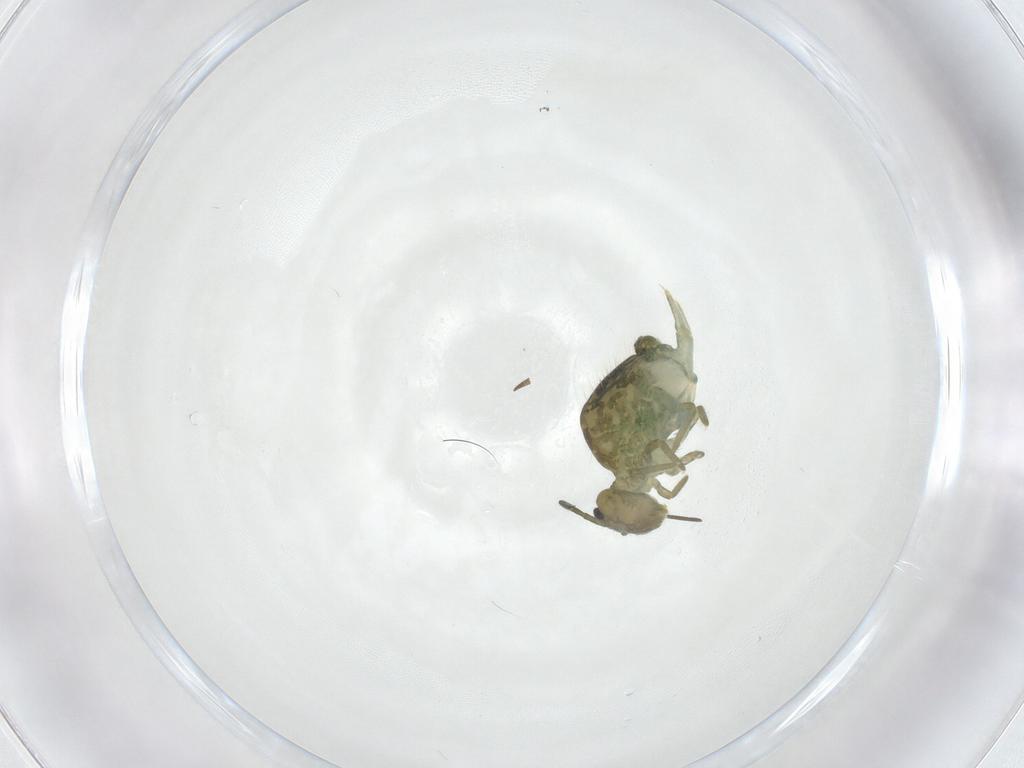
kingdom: Animalia
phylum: Arthropoda
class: Collembola
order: Symphypleona
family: Sminthuridae
